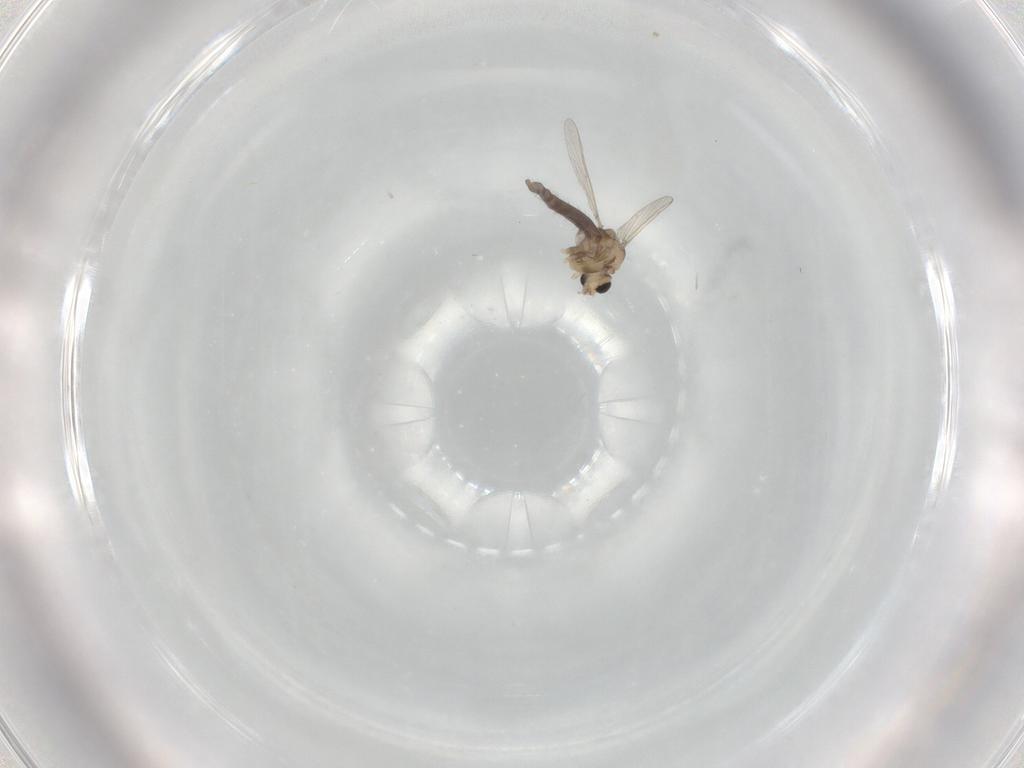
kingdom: Animalia
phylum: Arthropoda
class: Insecta
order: Diptera
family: Chironomidae
